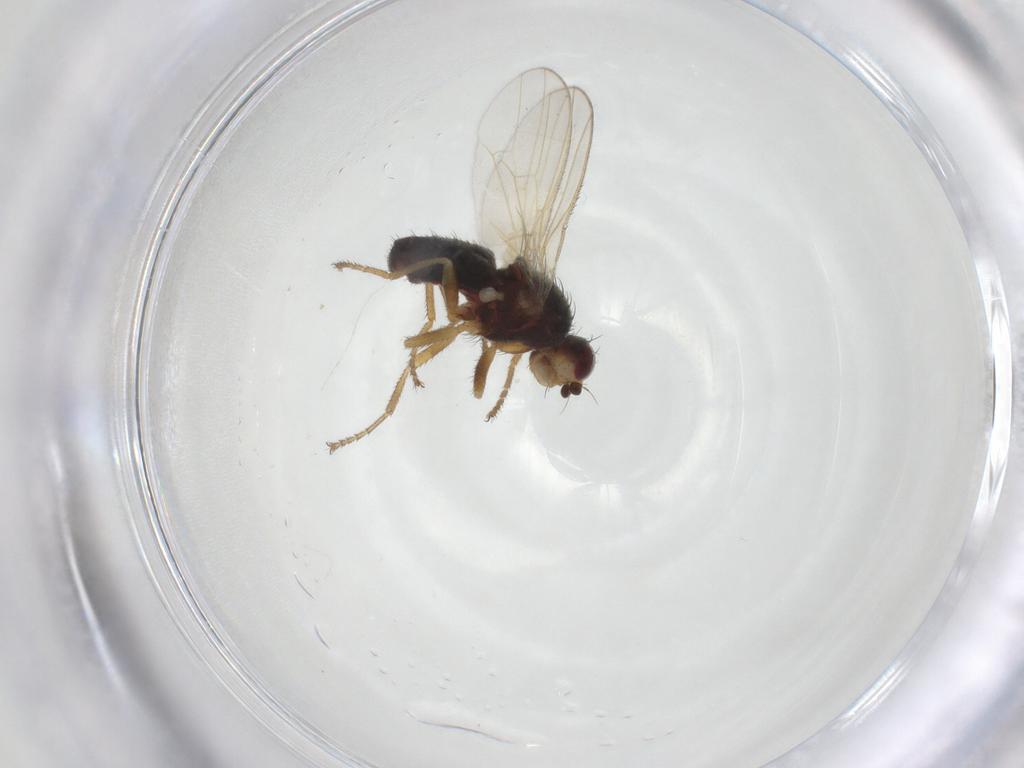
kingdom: Animalia
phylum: Arthropoda
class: Insecta
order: Diptera
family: Heleomyzidae
